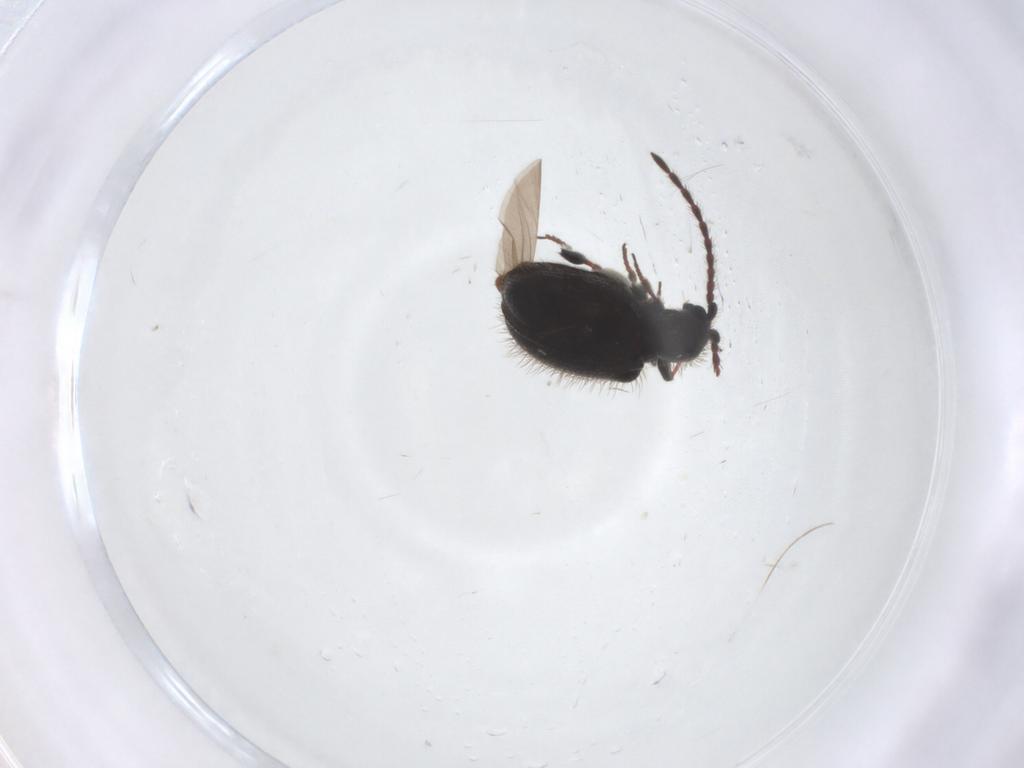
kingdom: Animalia
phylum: Arthropoda
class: Insecta
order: Coleoptera
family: Ptinidae
